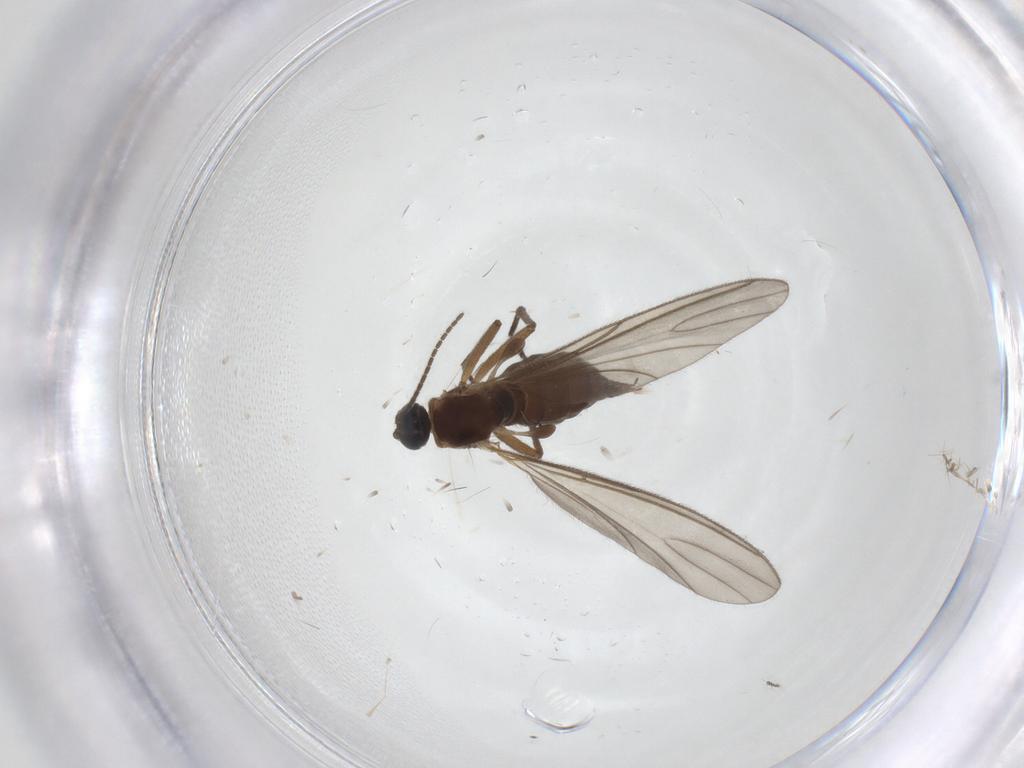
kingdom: Animalia
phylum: Arthropoda
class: Insecta
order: Diptera
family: Sciaridae
